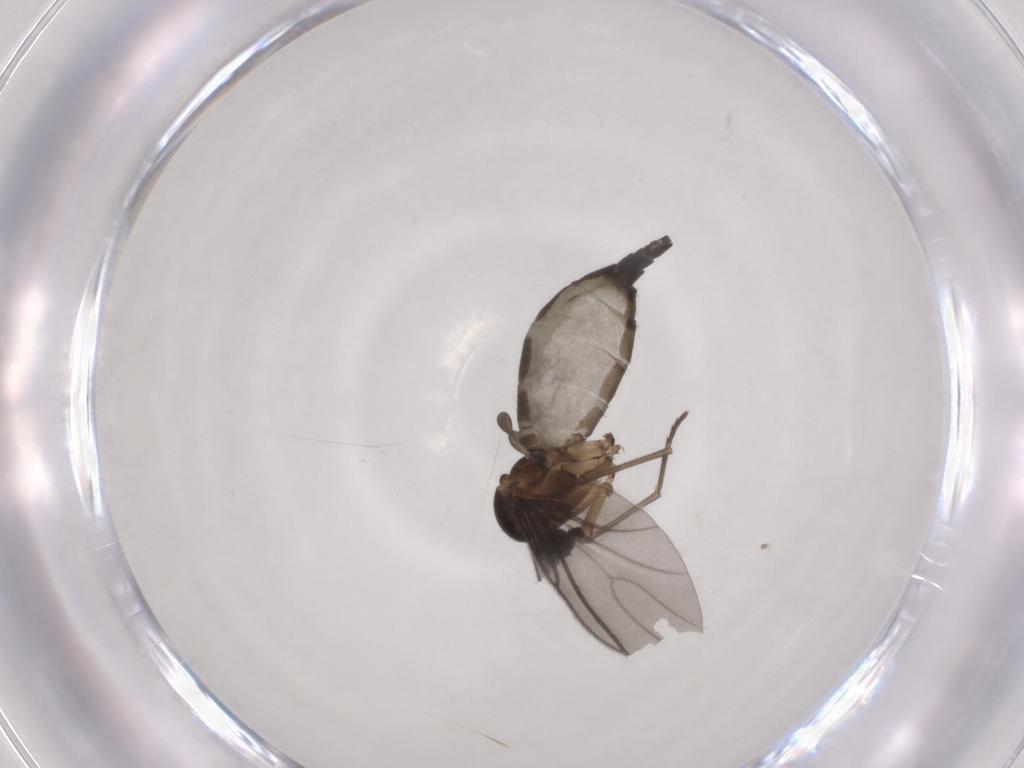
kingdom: Animalia
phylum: Arthropoda
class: Insecta
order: Diptera
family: Sciaridae
